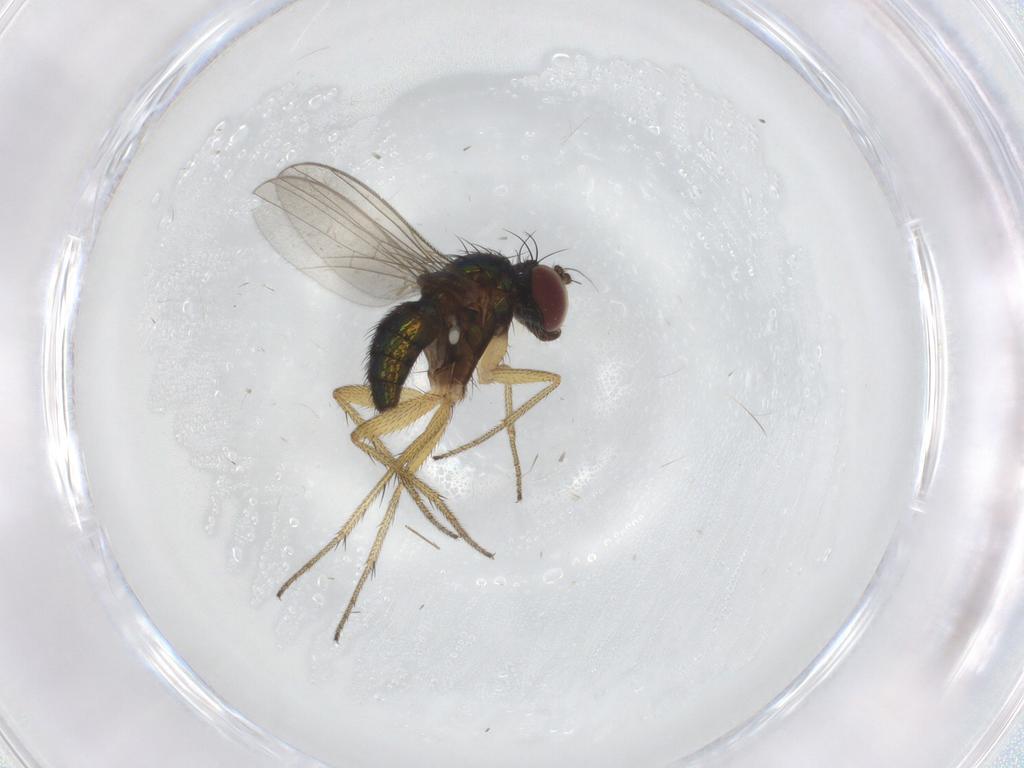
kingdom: Animalia
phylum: Arthropoda
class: Insecta
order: Diptera
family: Dolichopodidae
